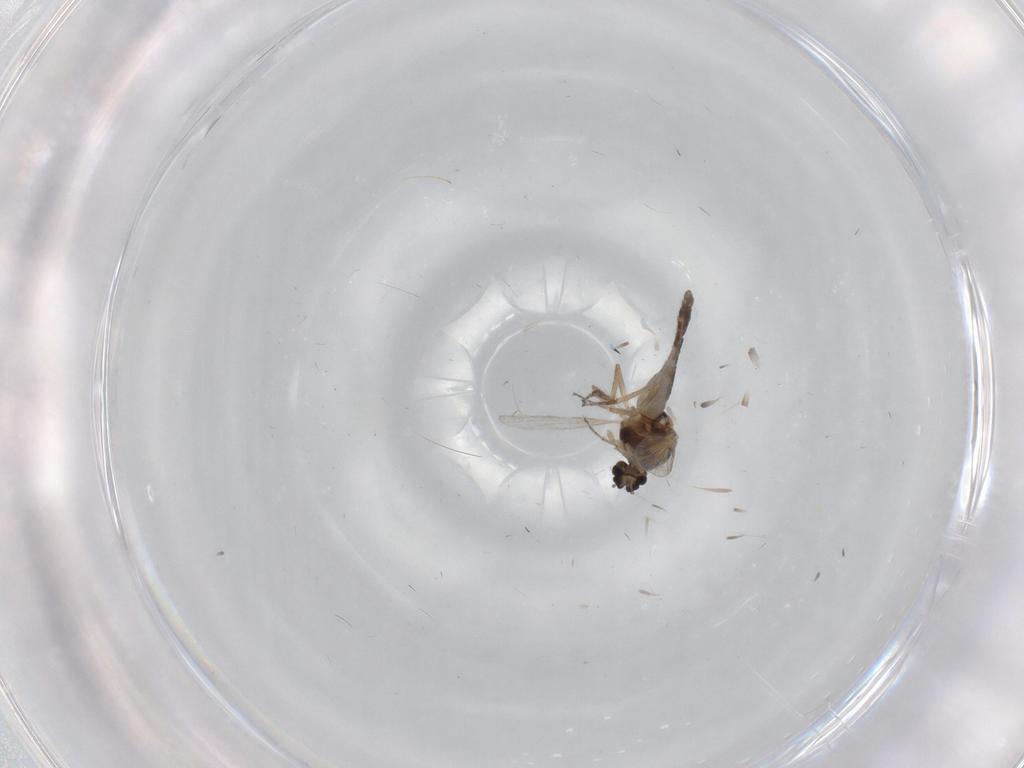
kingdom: Animalia
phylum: Arthropoda
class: Insecta
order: Diptera
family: Ceratopogonidae
